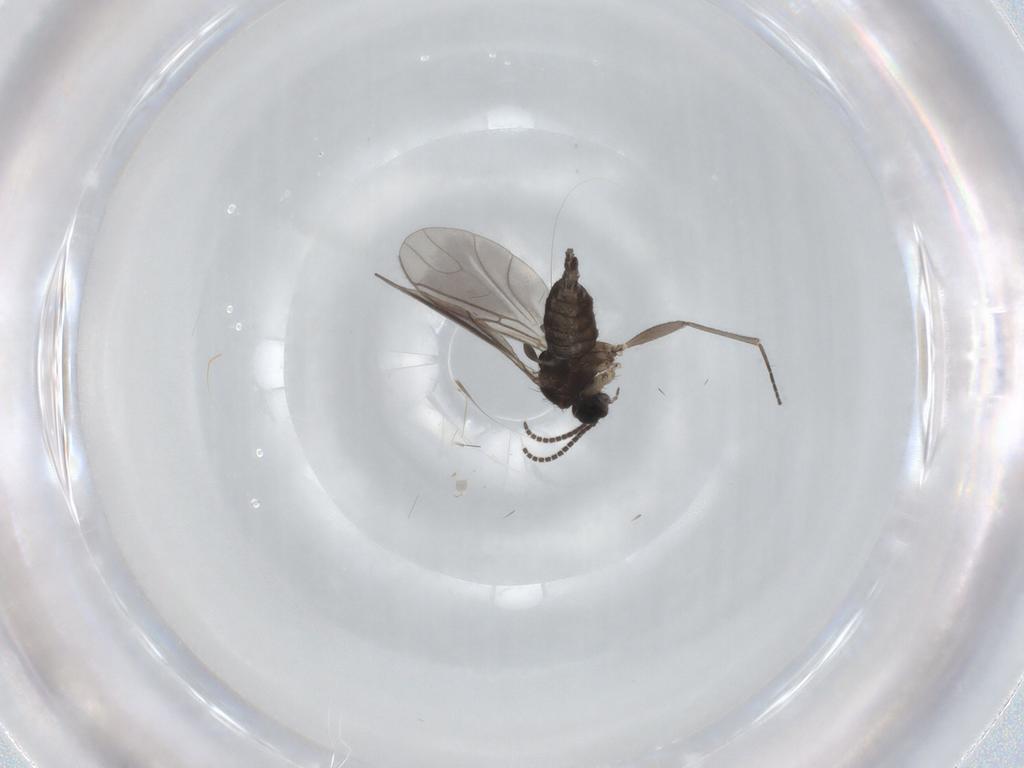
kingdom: Animalia
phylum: Arthropoda
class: Insecta
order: Diptera
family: Sciaridae
